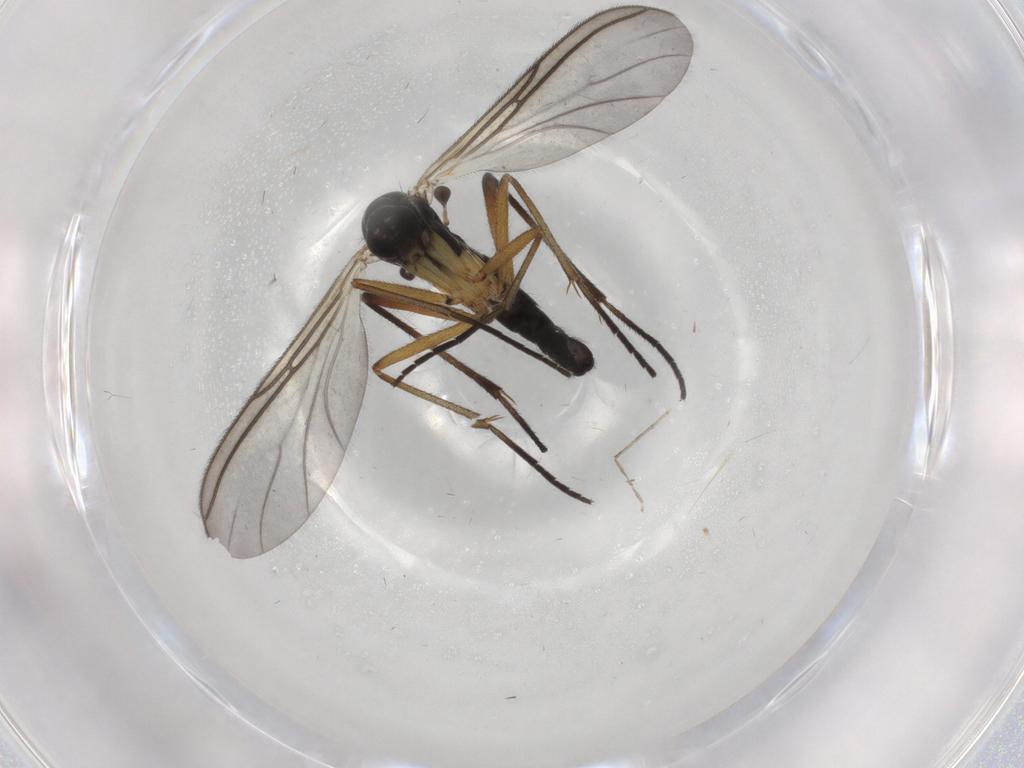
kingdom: Animalia
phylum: Arthropoda
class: Insecta
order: Diptera
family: Sciaridae
